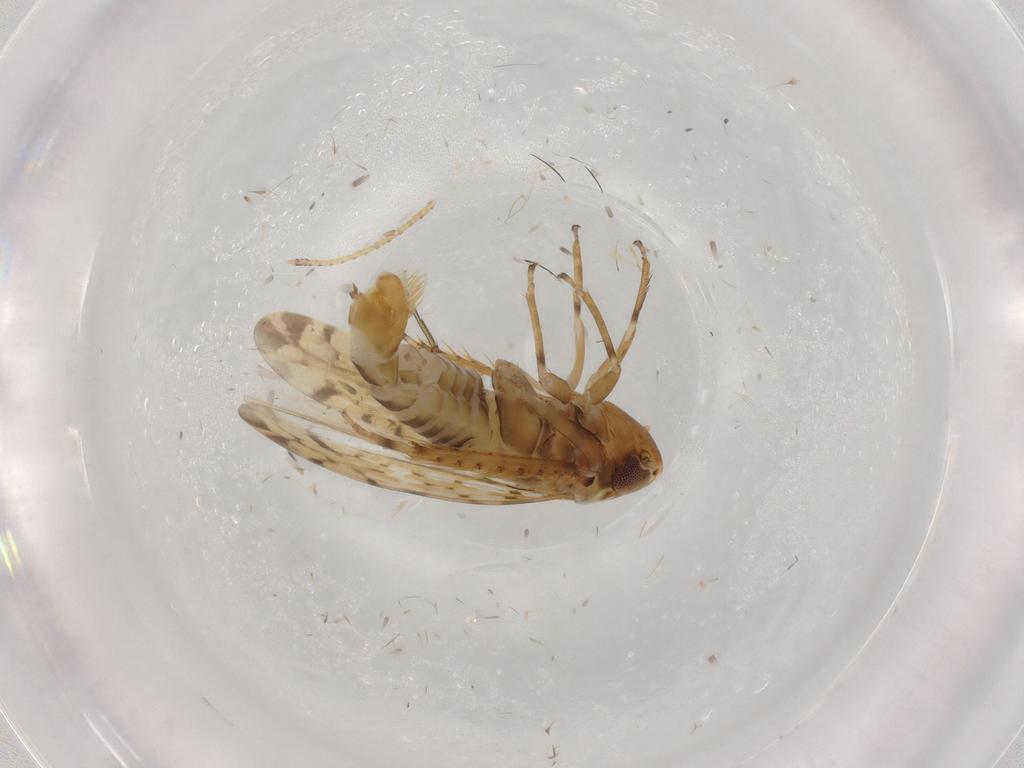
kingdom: Animalia
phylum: Arthropoda
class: Insecta
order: Hemiptera
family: Cicadellidae
